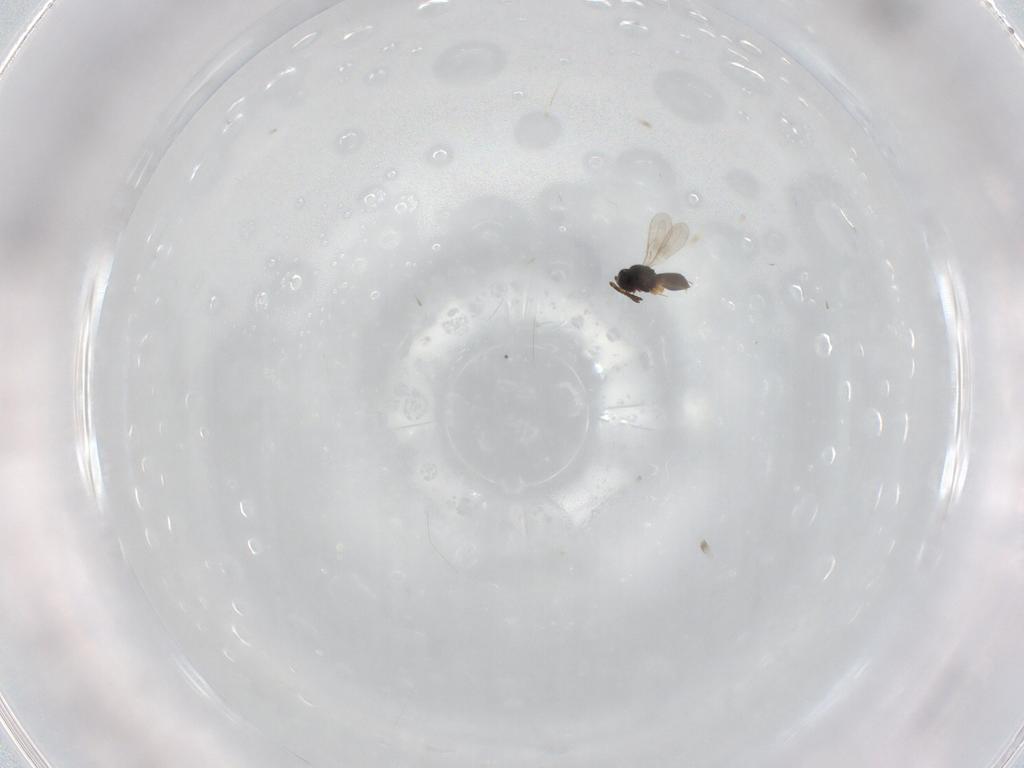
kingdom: Animalia
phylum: Arthropoda
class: Insecta
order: Hymenoptera
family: Scelionidae
